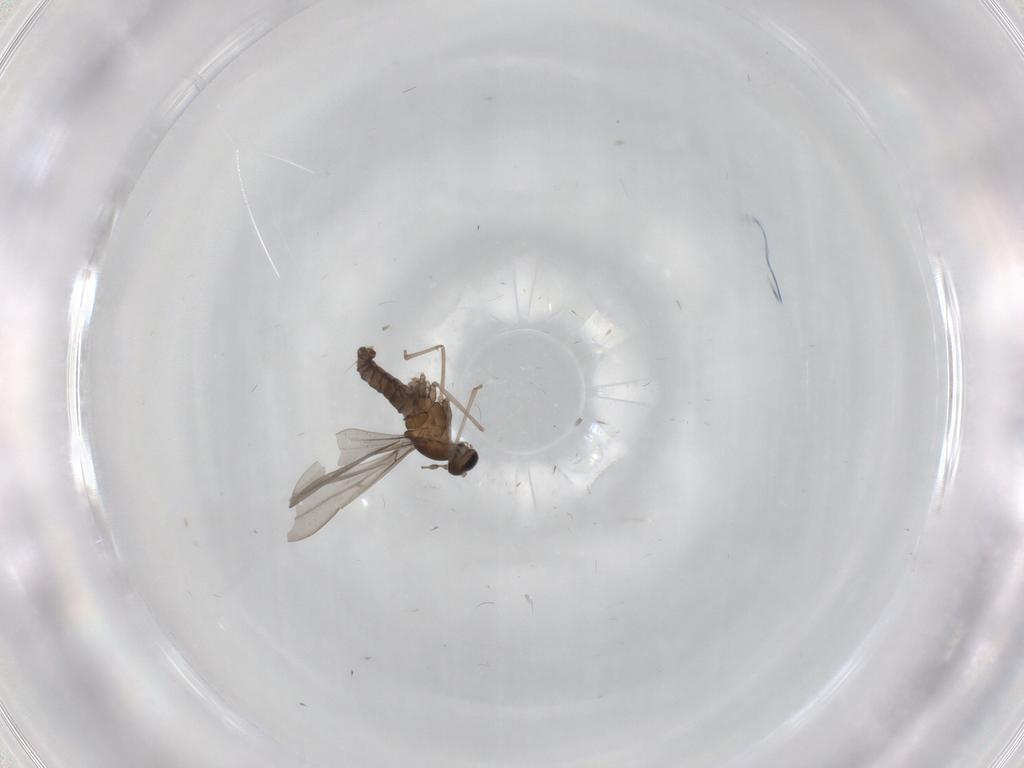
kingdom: Animalia
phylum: Arthropoda
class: Insecta
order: Diptera
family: Cecidomyiidae
